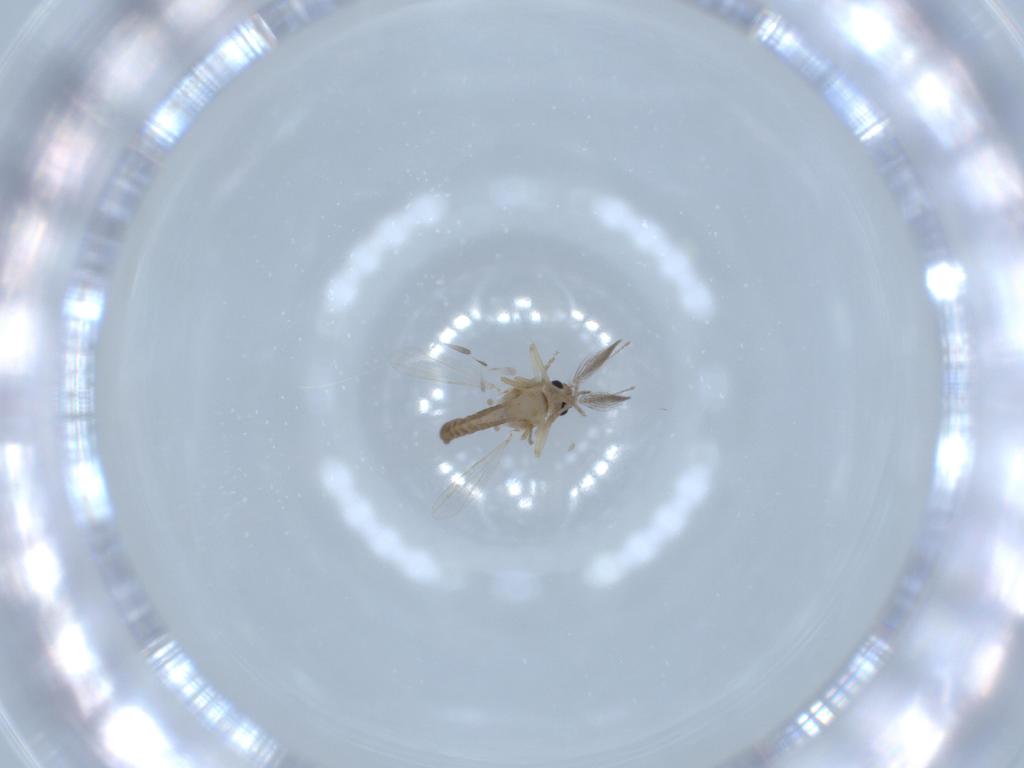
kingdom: Animalia
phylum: Arthropoda
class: Insecta
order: Diptera
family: Ceratopogonidae
